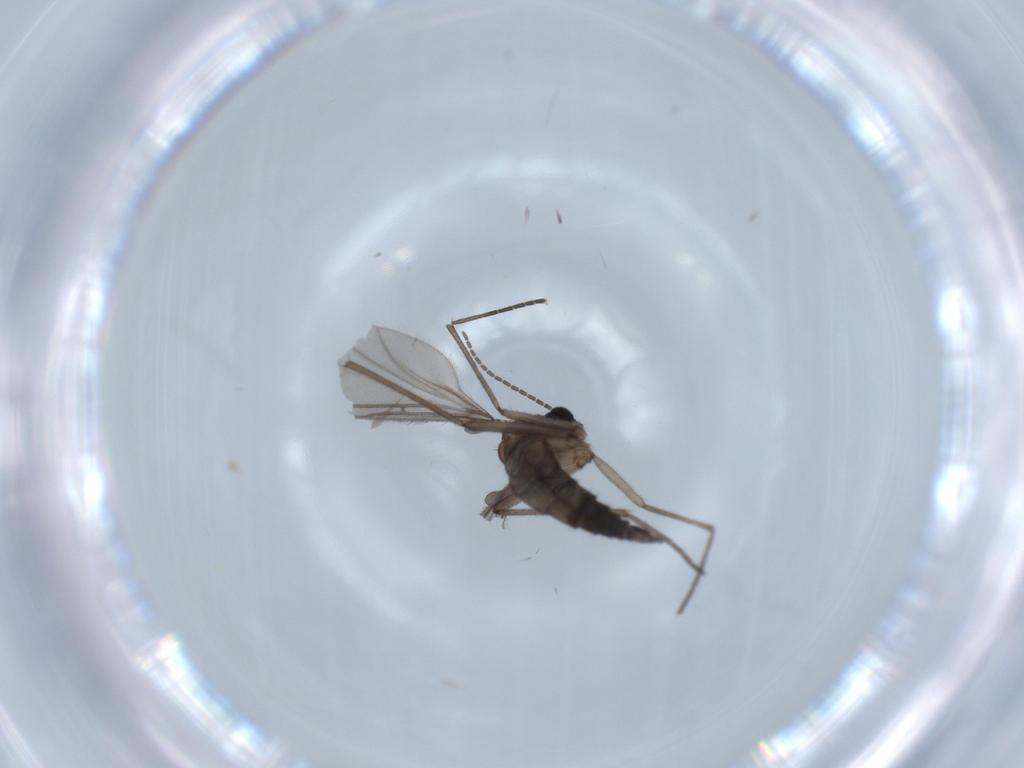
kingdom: Animalia
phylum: Arthropoda
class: Insecta
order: Diptera
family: Sciaridae
